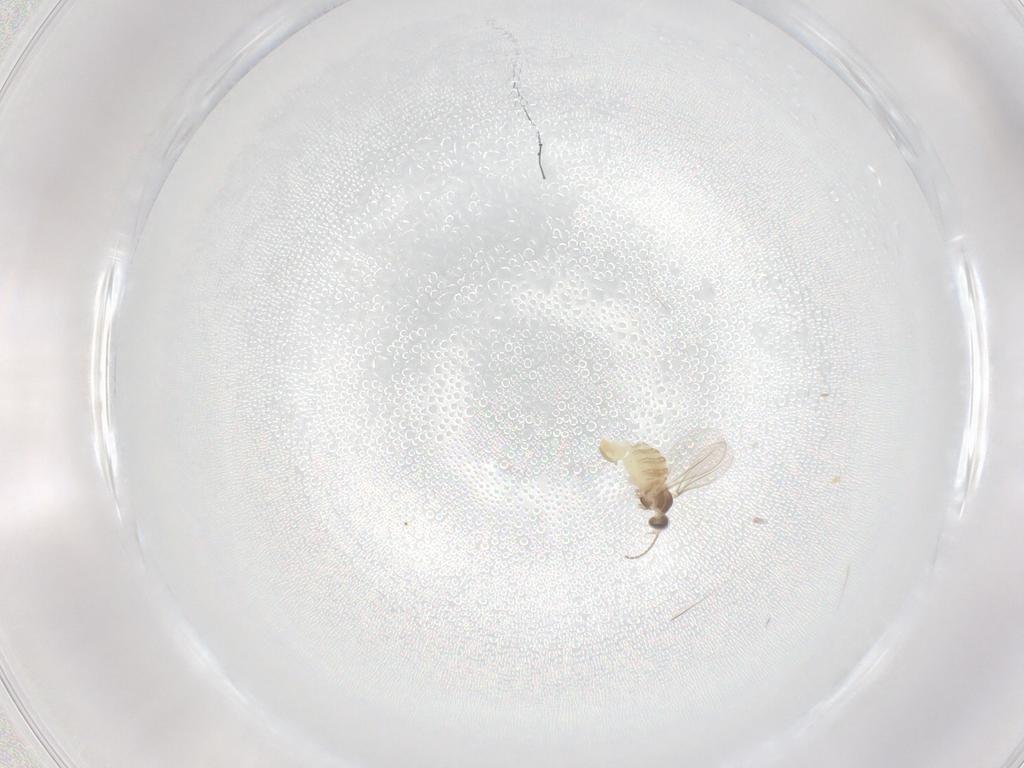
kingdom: Animalia
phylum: Arthropoda
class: Insecta
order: Diptera
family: Cecidomyiidae
